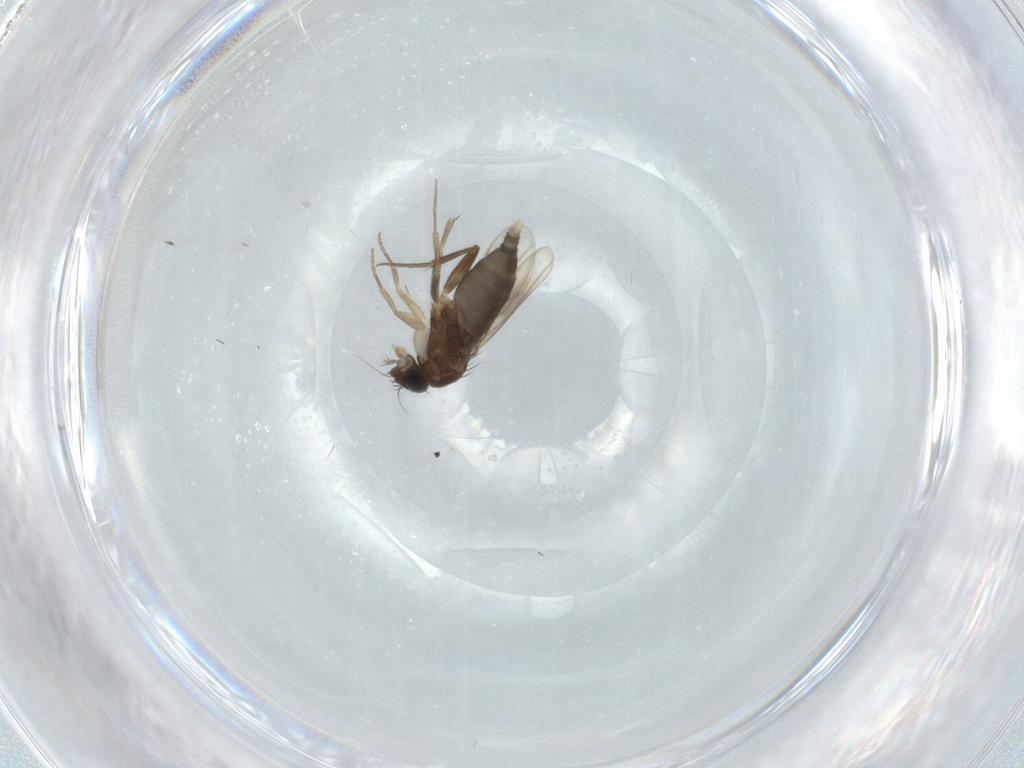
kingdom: Animalia
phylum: Arthropoda
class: Insecta
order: Diptera
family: Phoridae
